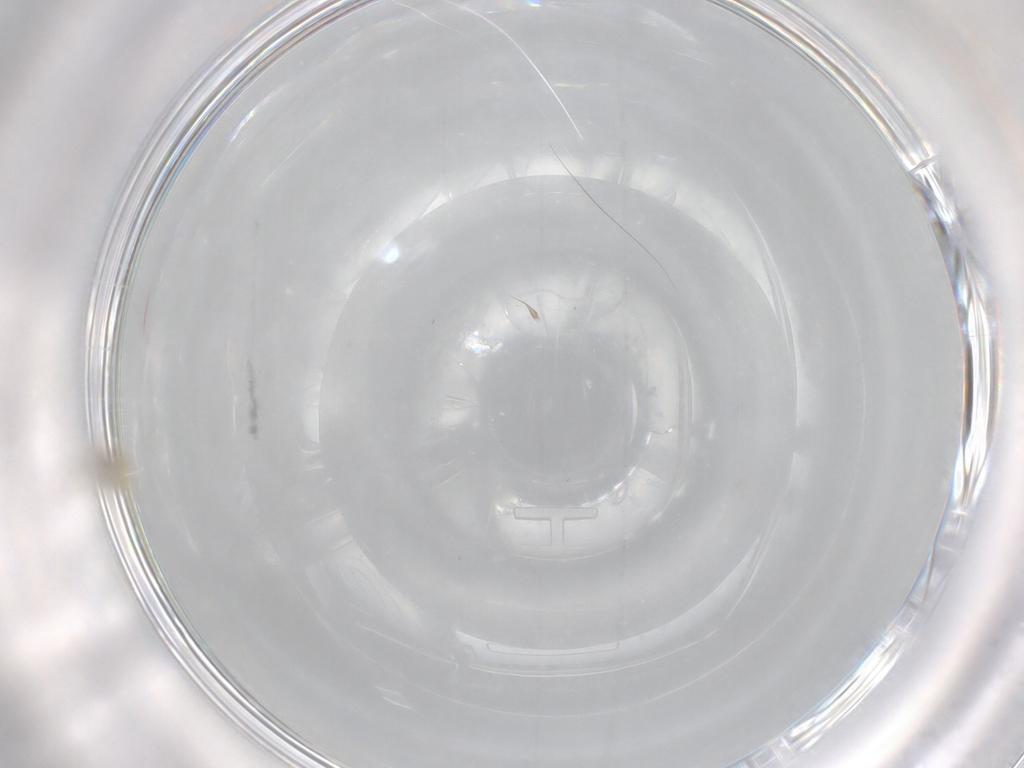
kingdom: Animalia
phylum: Arthropoda
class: Insecta
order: Diptera
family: Cecidomyiidae
